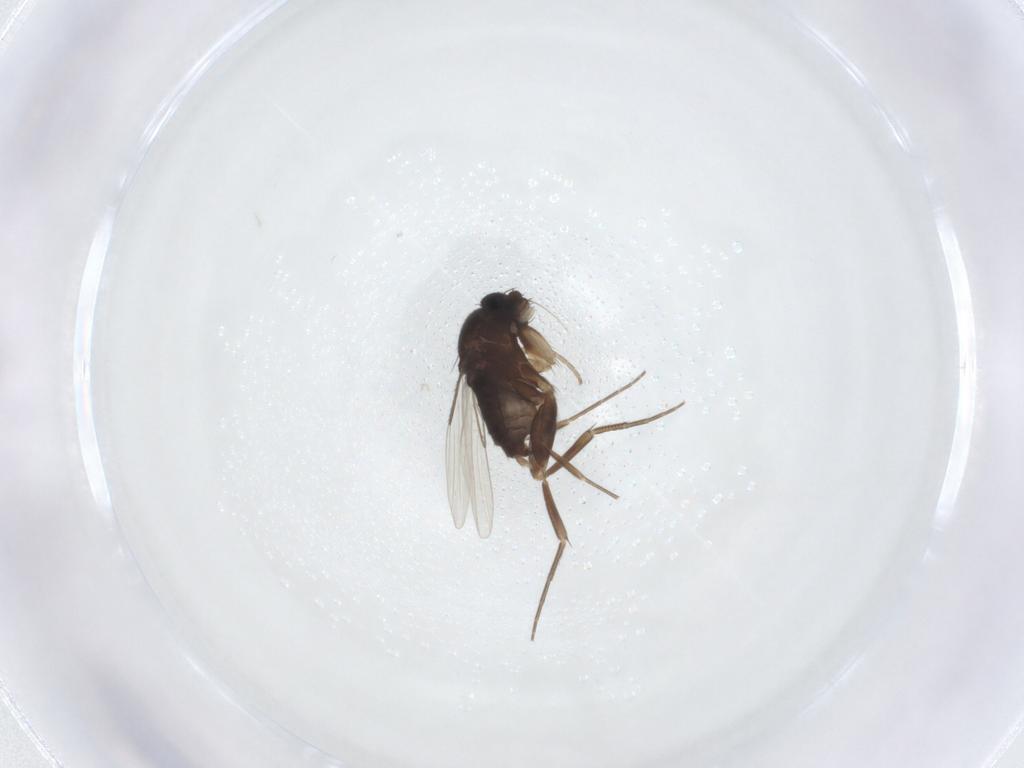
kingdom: Animalia
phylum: Arthropoda
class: Insecta
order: Diptera
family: Phoridae
